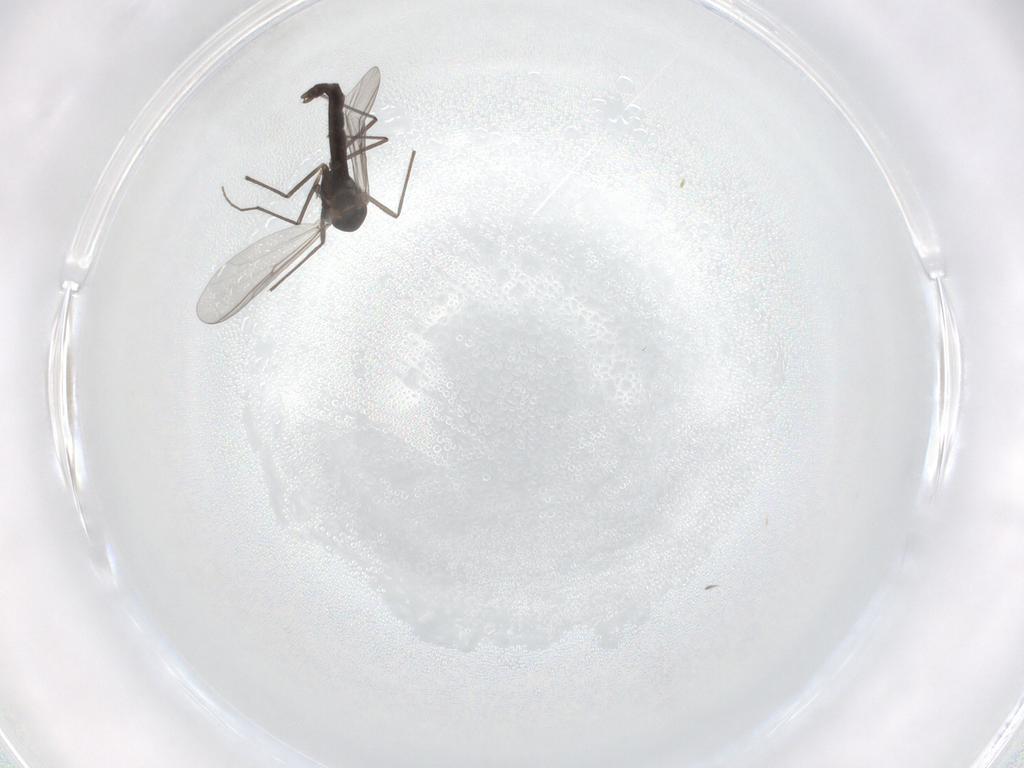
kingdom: Animalia
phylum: Arthropoda
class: Insecta
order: Diptera
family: Chironomidae
